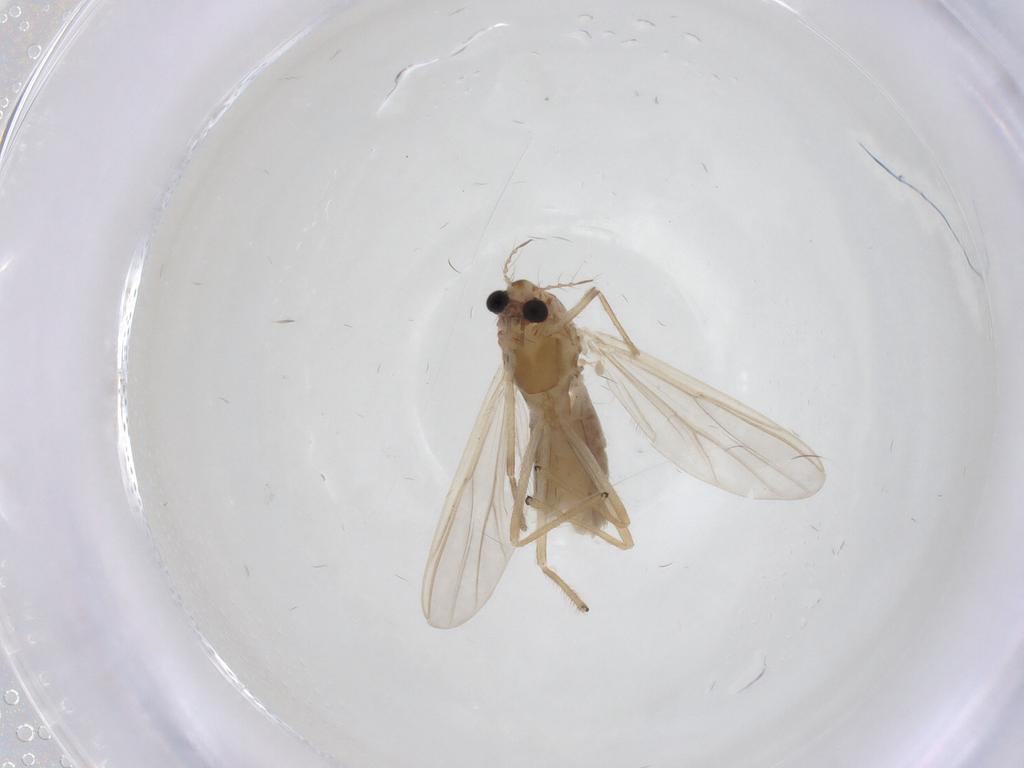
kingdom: Animalia
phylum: Arthropoda
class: Insecta
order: Diptera
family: Chironomidae
